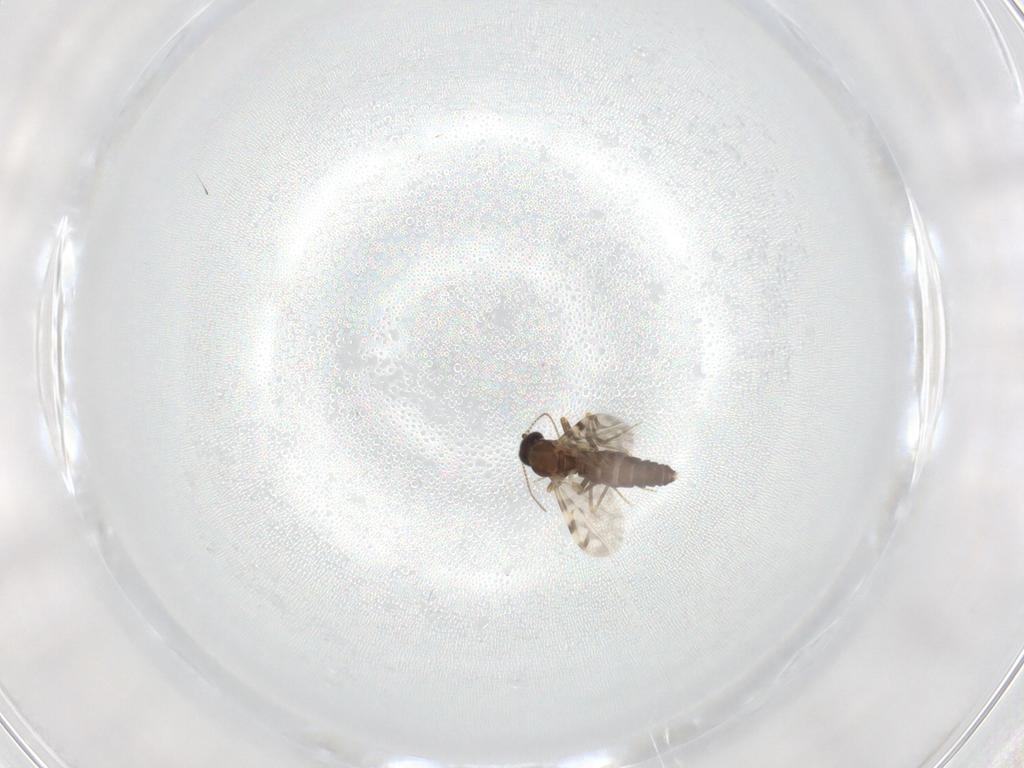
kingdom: Animalia
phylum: Arthropoda
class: Insecta
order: Diptera
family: Ceratopogonidae
